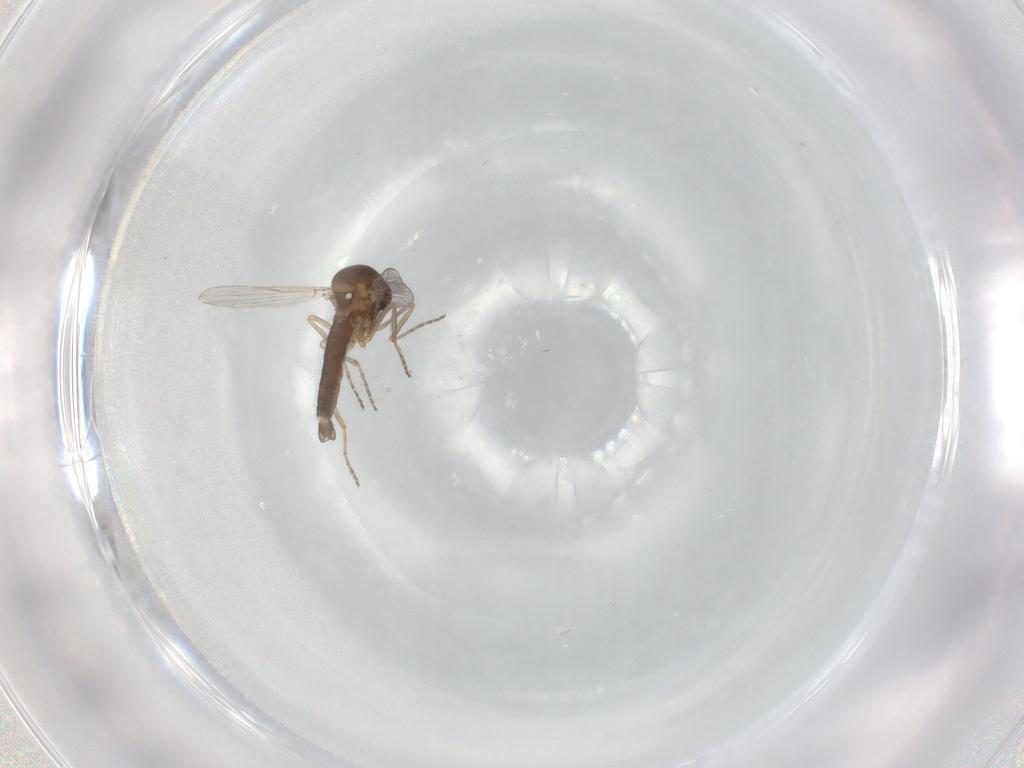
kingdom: Animalia
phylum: Arthropoda
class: Insecta
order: Diptera
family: Ceratopogonidae
